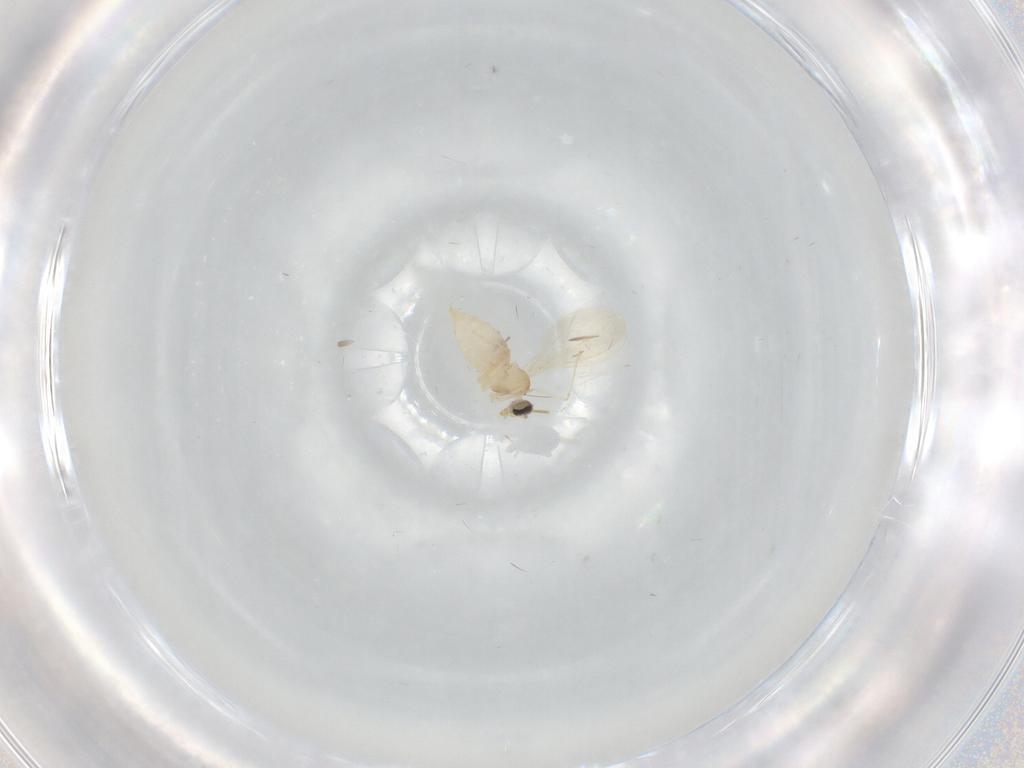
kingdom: Animalia
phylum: Arthropoda
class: Insecta
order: Diptera
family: Cecidomyiidae
